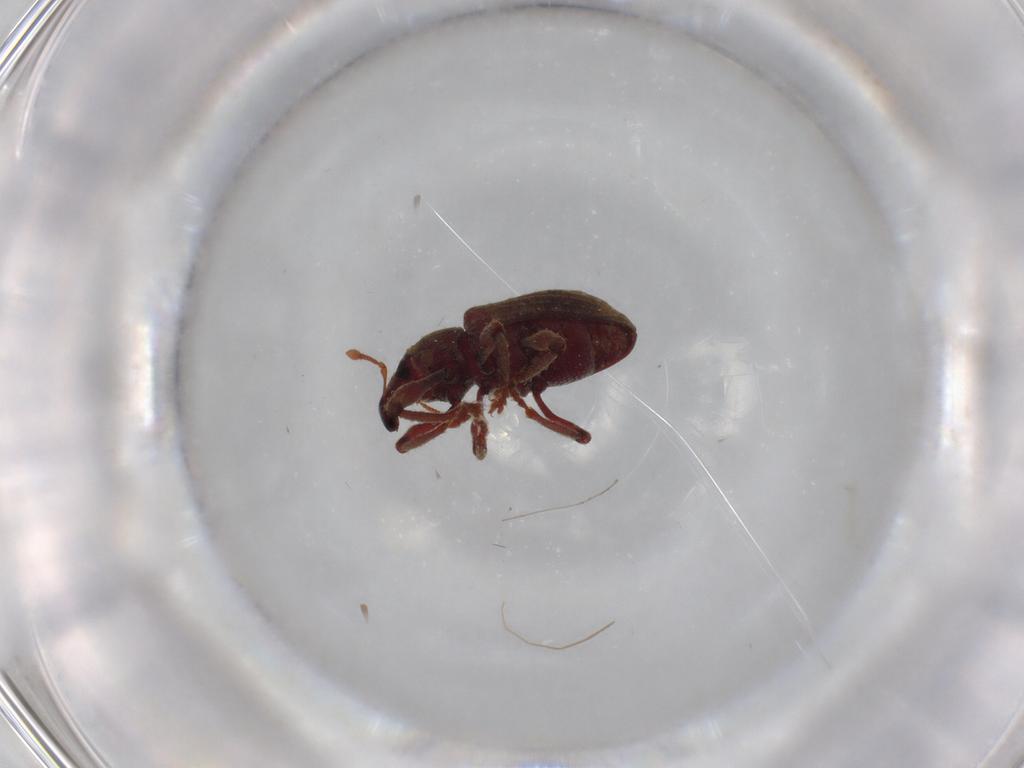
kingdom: Animalia
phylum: Arthropoda
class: Insecta
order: Coleoptera
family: Curculionidae
